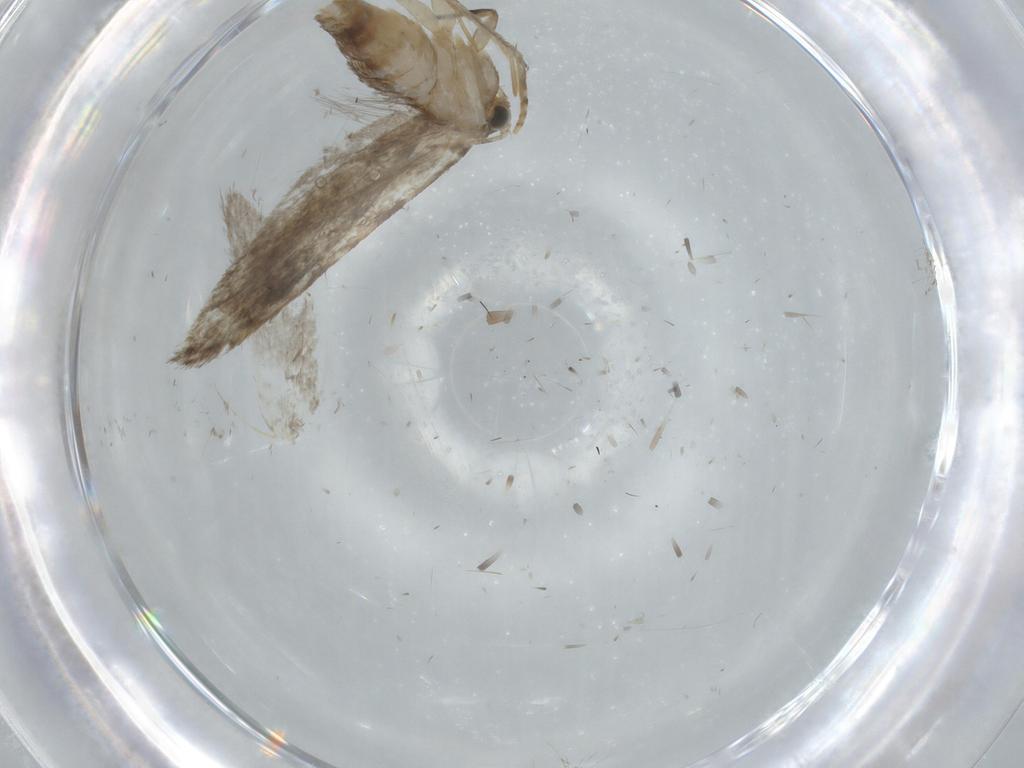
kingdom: Animalia
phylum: Arthropoda
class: Insecta
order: Lepidoptera
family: Tineidae
